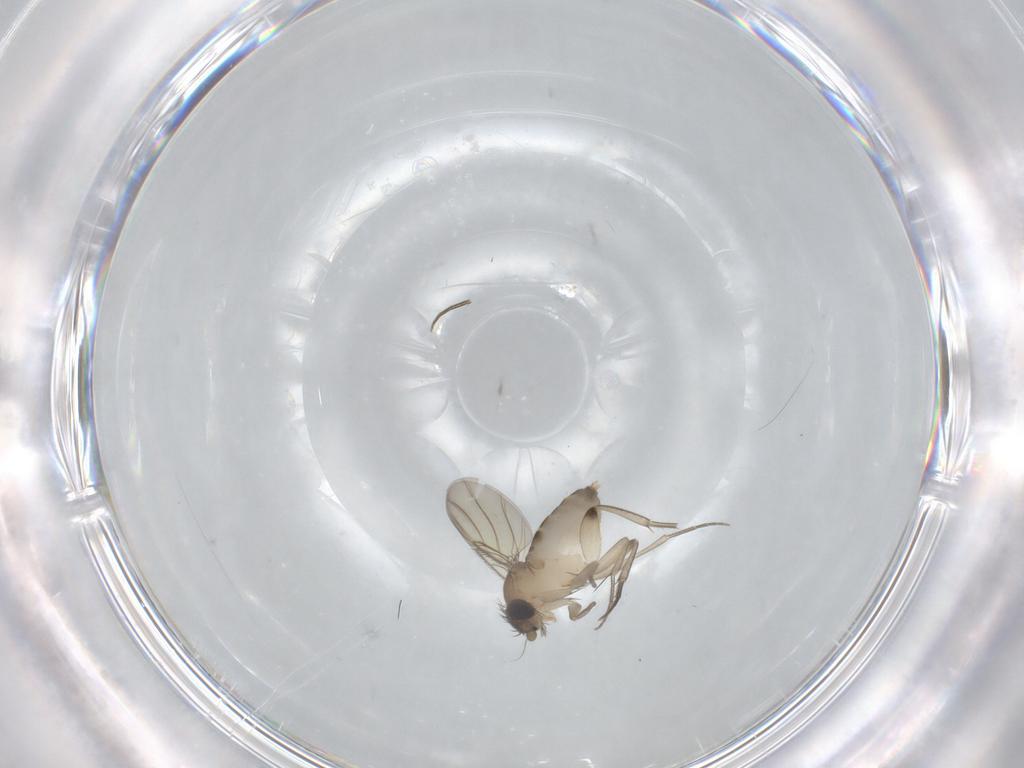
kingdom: Animalia
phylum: Arthropoda
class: Insecta
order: Diptera
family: Phoridae
